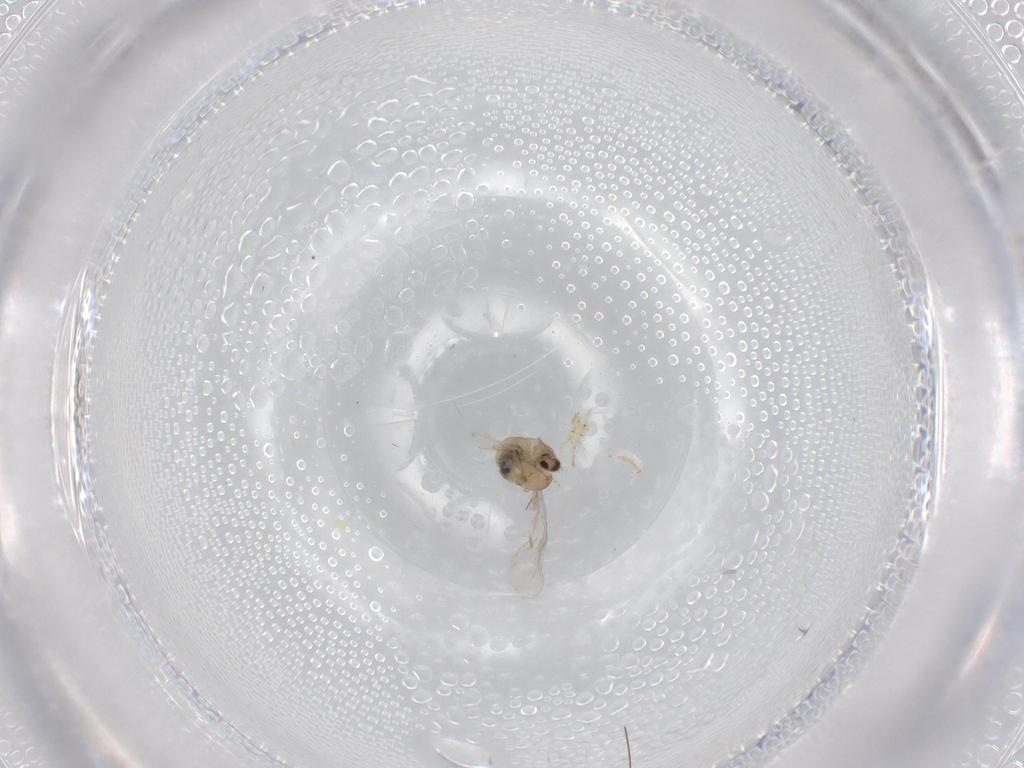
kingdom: Animalia
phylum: Arthropoda
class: Insecta
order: Diptera
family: Cecidomyiidae
